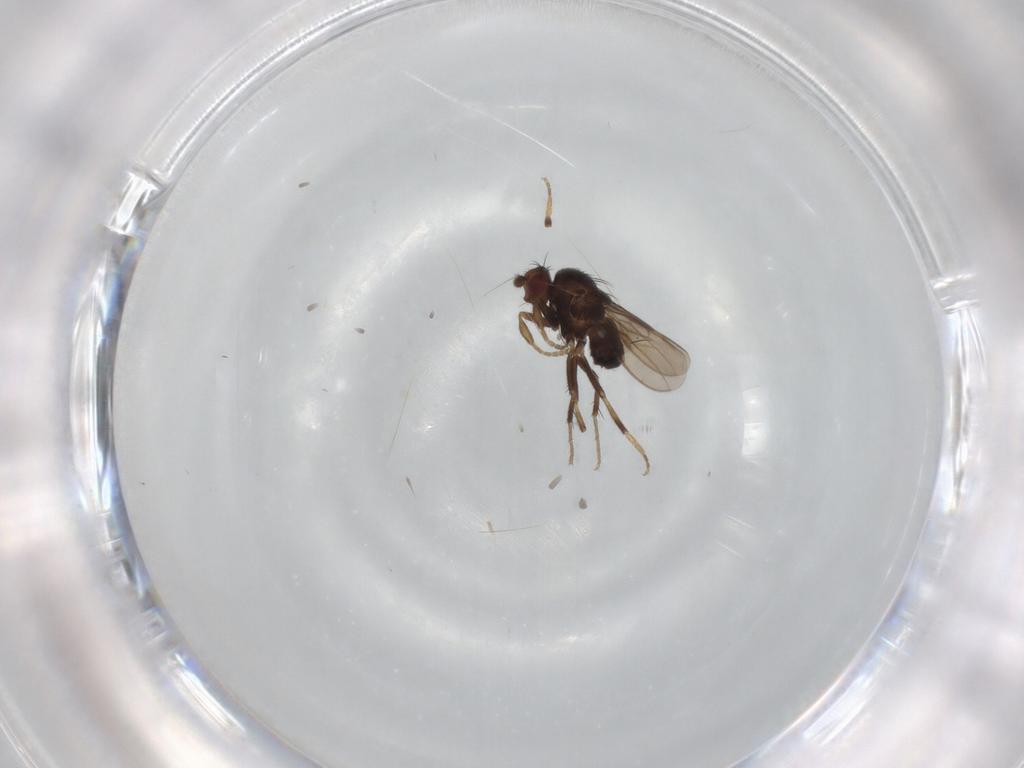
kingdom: Animalia
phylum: Arthropoda
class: Insecta
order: Diptera
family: Sphaeroceridae
